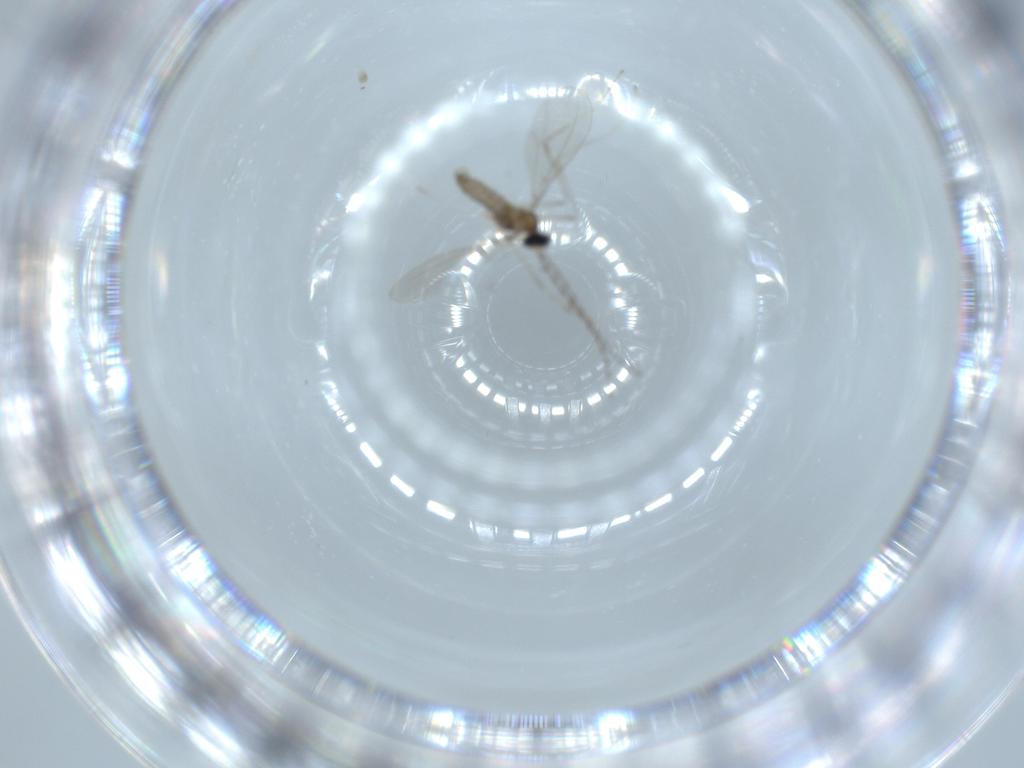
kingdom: Animalia
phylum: Arthropoda
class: Insecta
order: Diptera
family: Cecidomyiidae
